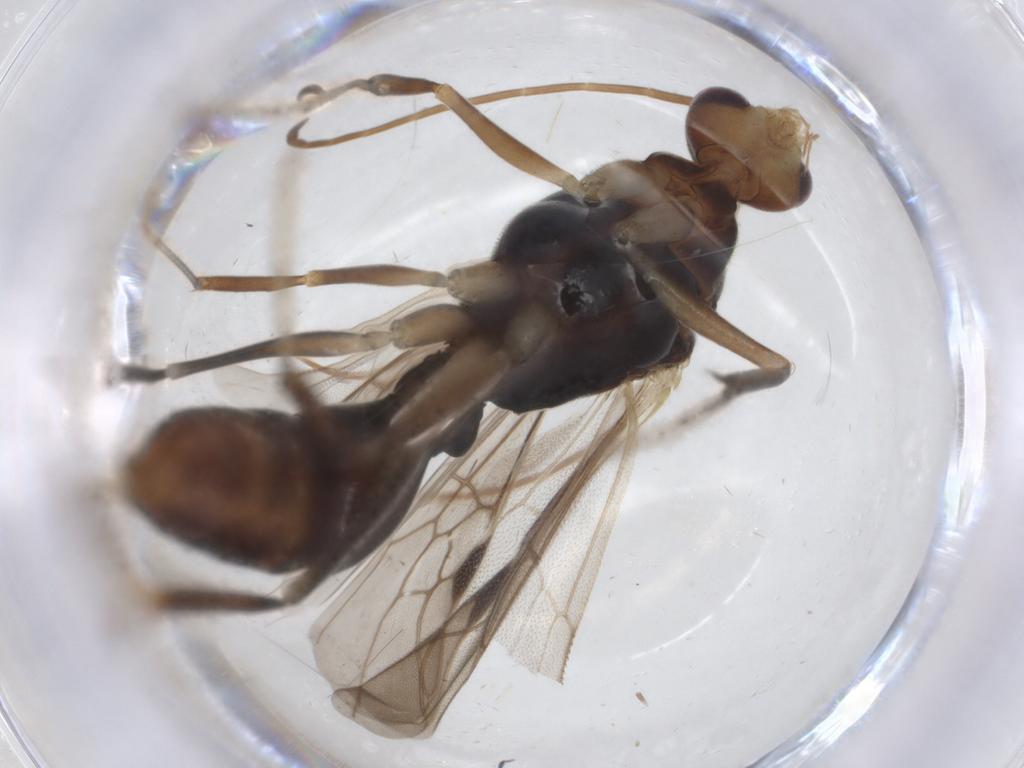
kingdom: Animalia
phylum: Arthropoda
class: Insecta
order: Hymenoptera
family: Formicidae
